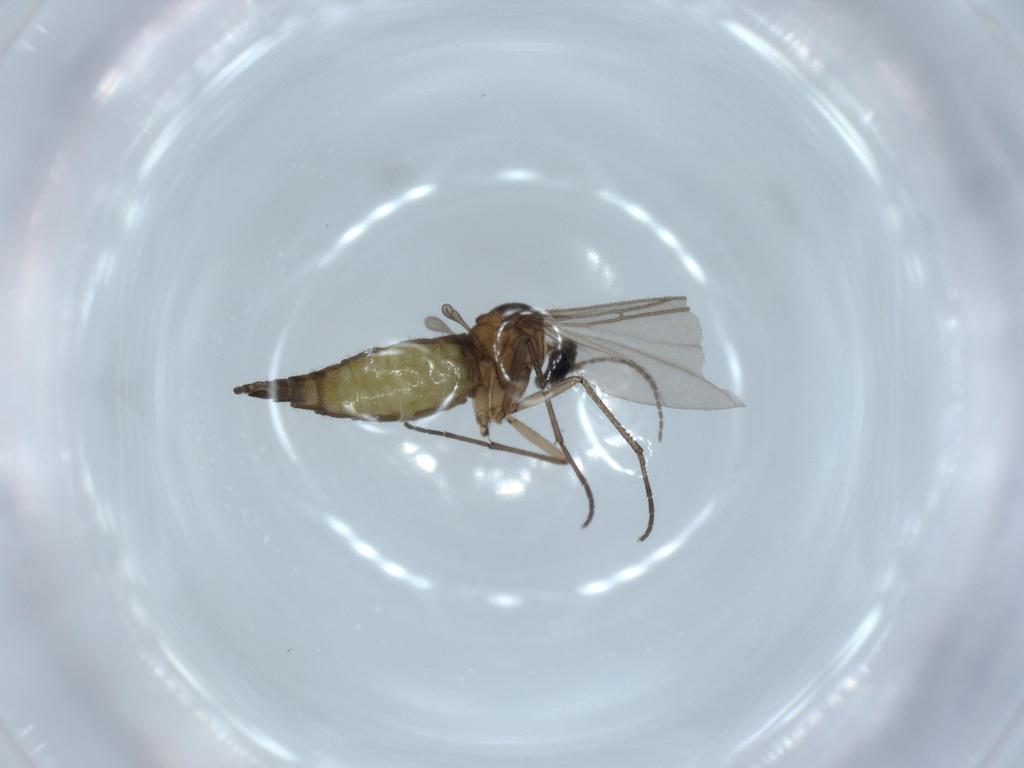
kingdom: Animalia
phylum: Arthropoda
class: Insecta
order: Diptera
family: Sciaridae
